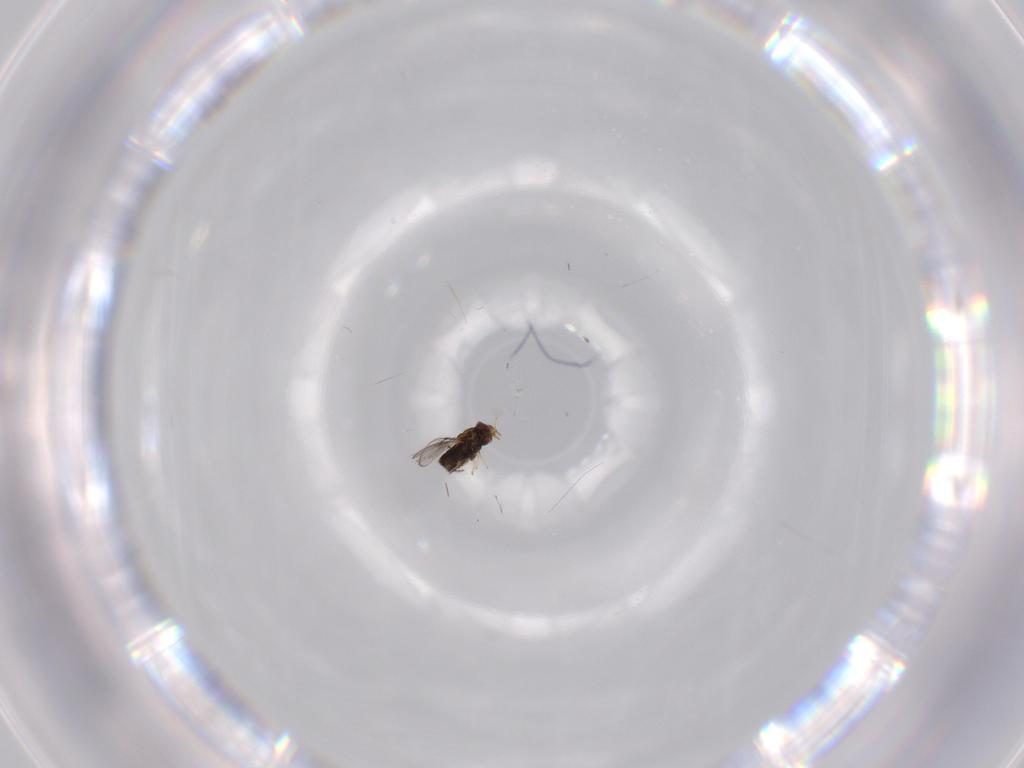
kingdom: Animalia
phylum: Arthropoda
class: Insecta
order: Hymenoptera
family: Trichogrammatidae
